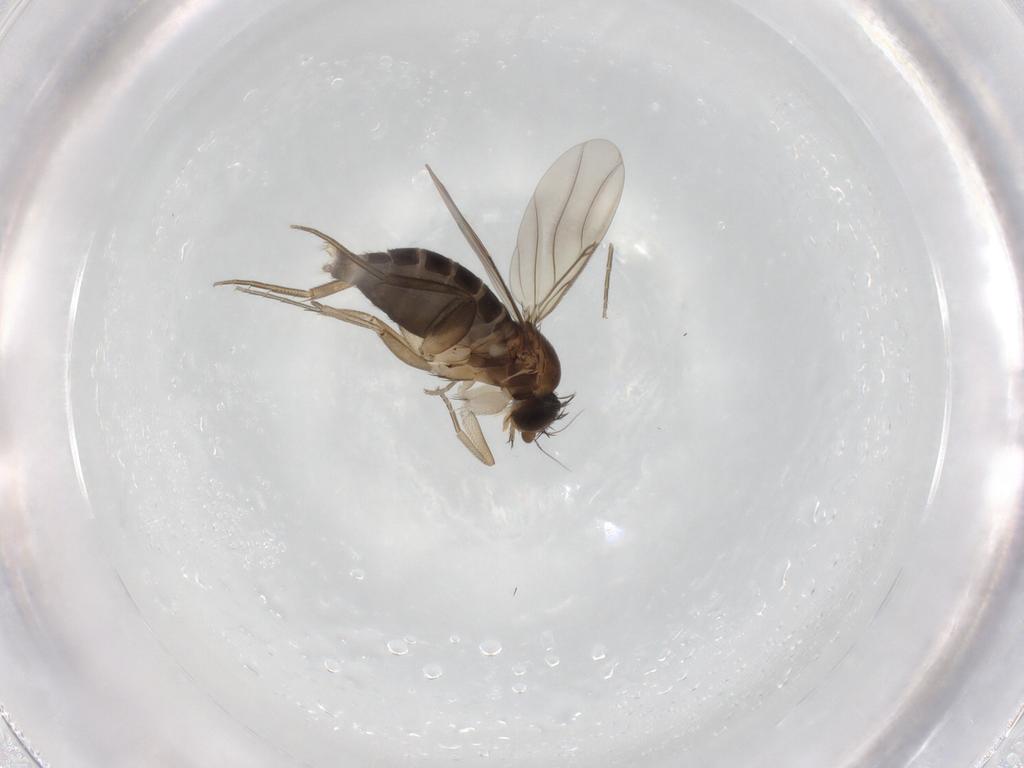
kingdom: Animalia
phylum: Arthropoda
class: Insecta
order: Diptera
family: Phoridae
